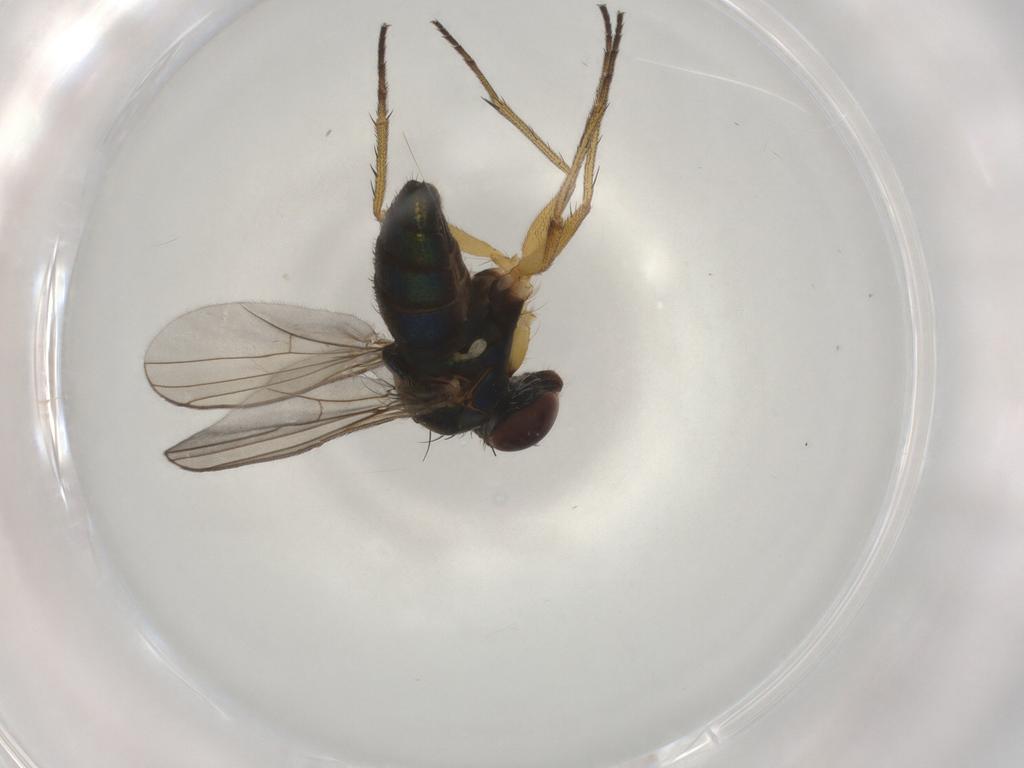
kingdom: Animalia
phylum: Arthropoda
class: Insecta
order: Diptera
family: Dolichopodidae
